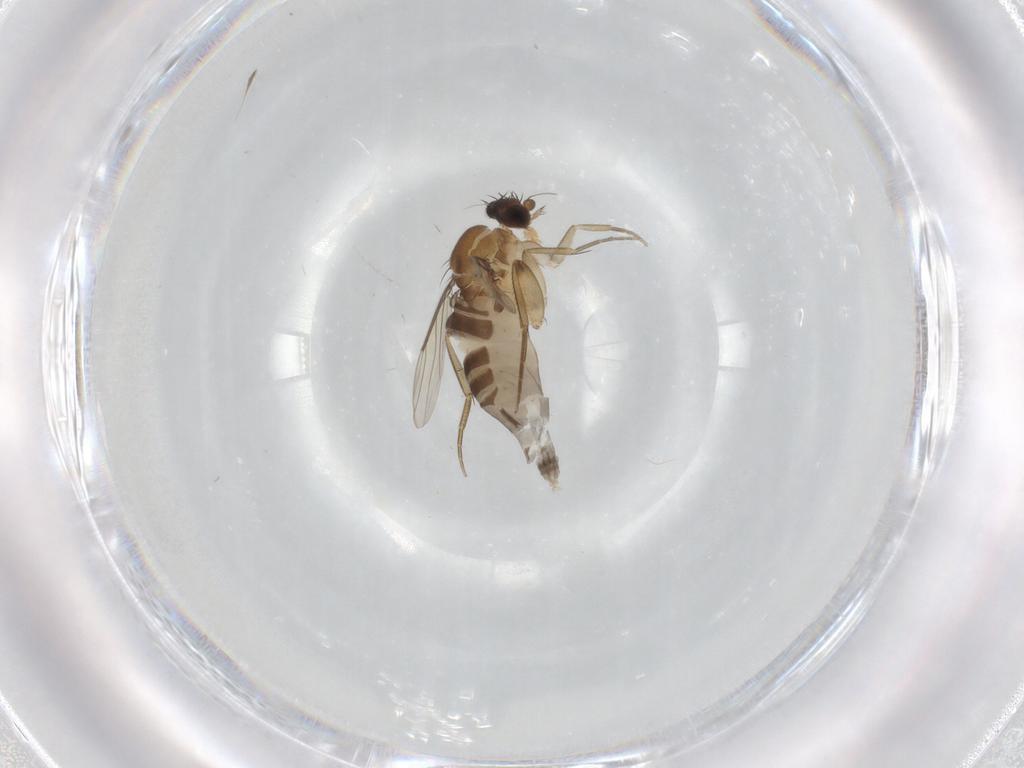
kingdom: Animalia
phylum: Arthropoda
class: Insecta
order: Diptera
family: Phoridae
